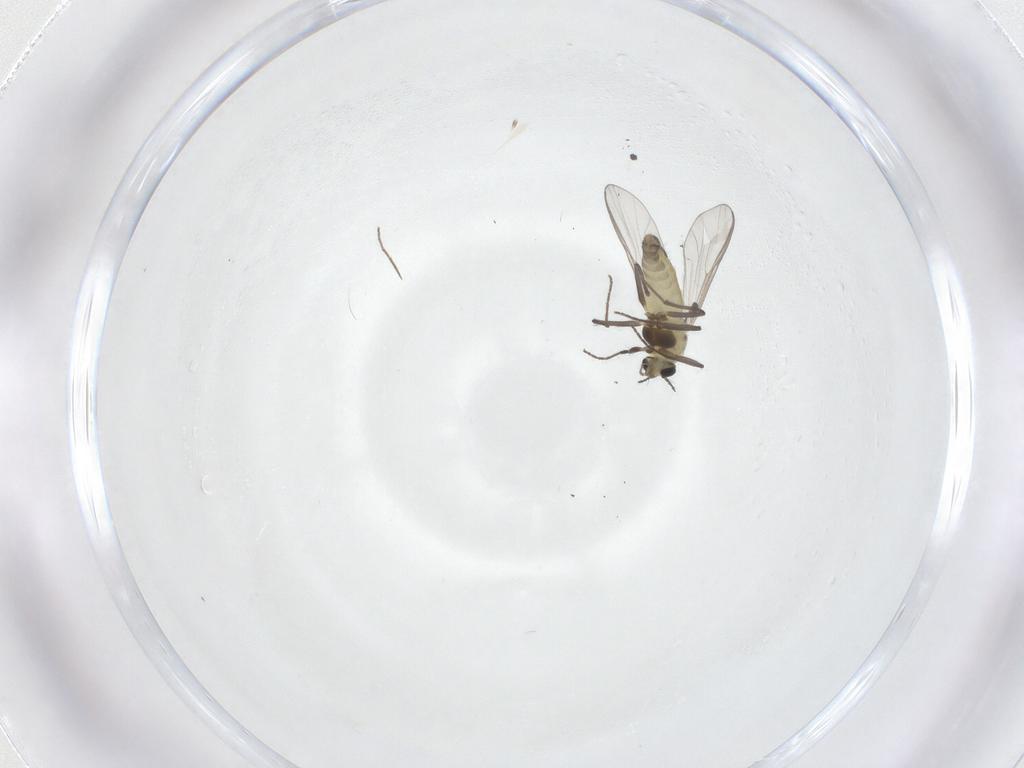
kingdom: Animalia
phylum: Arthropoda
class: Insecta
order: Diptera
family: Chironomidae
